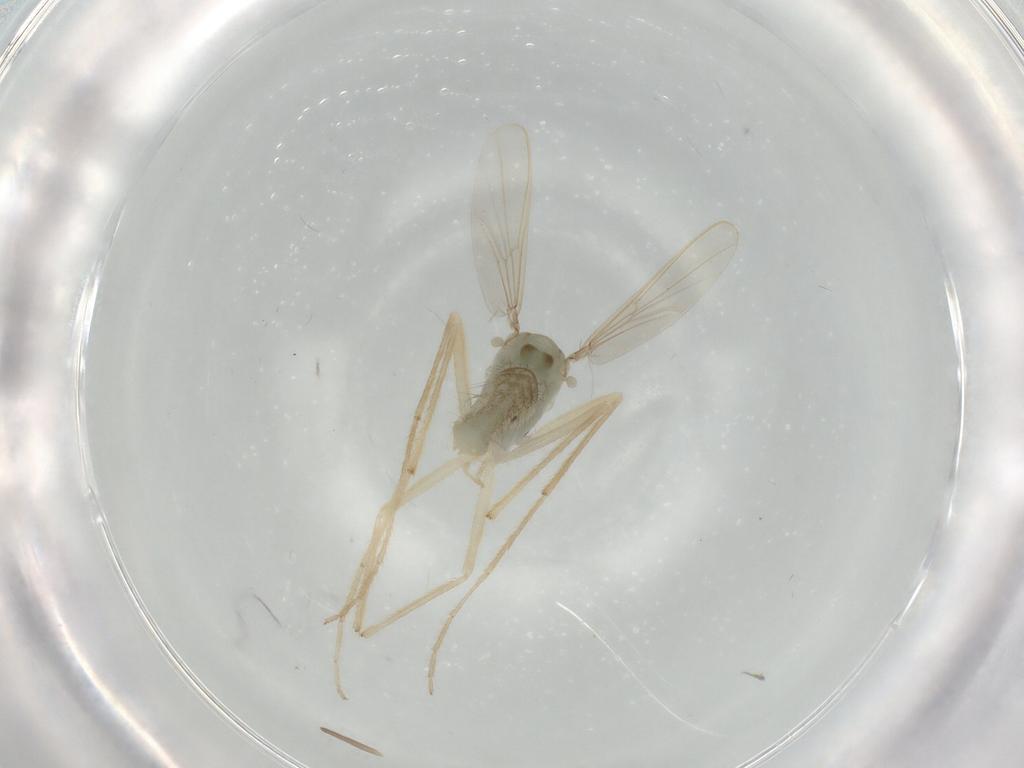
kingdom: Animalia
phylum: Arthropoda
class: Insecta
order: Diptera
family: Chironomidae
